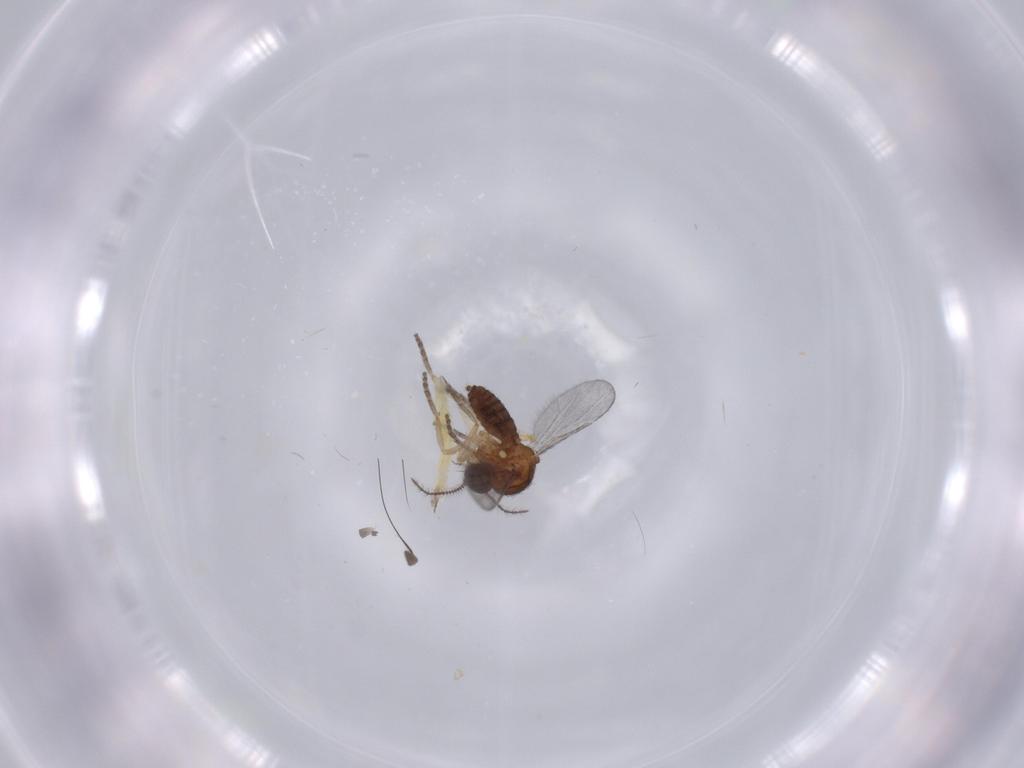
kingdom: Animalia
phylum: Arthropoda
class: Insecta
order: Diptera
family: Ceratopogonidae
